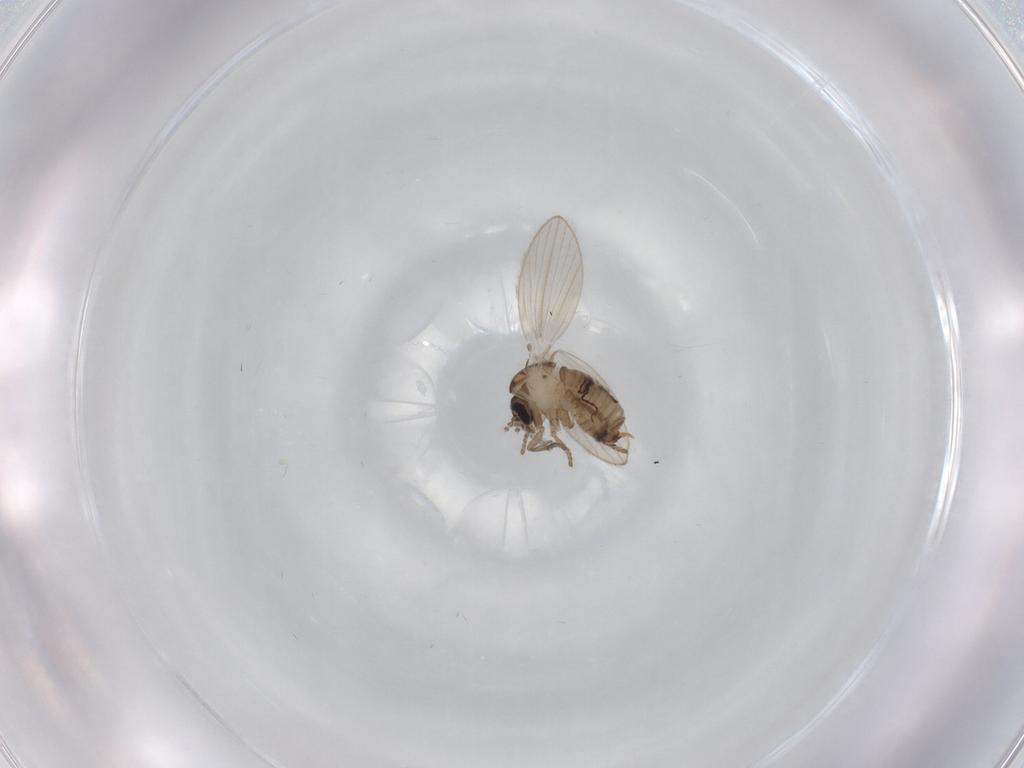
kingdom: Animalia
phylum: Arthropoda
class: Insecta
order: Diptera
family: Psychodidae
